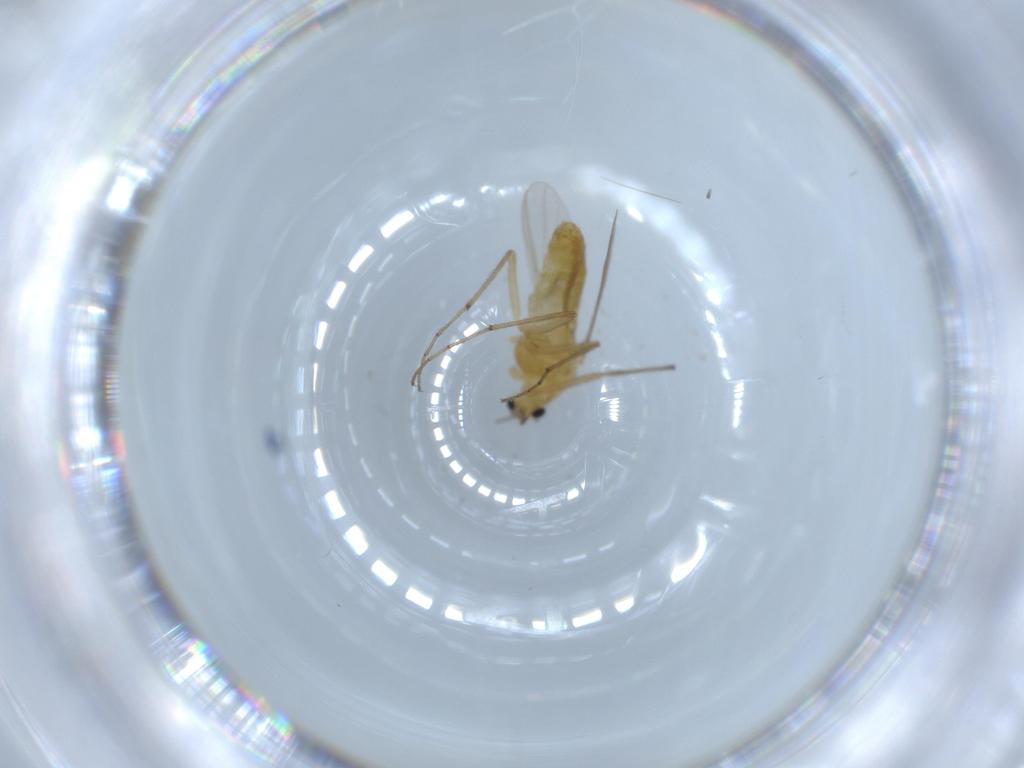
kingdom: Animalia
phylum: Arthropoda
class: Insecta
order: Diptera
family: Chironomidae
